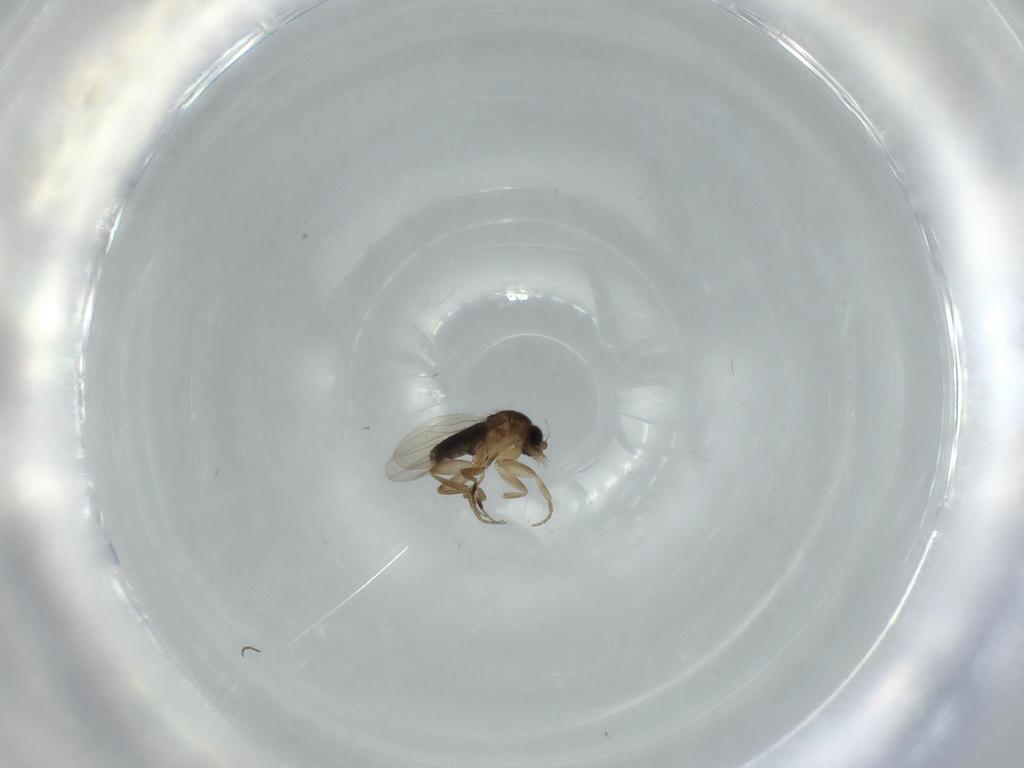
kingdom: Animalia
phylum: Arthropoda
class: Insecta
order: Diptera
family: Phoridae
